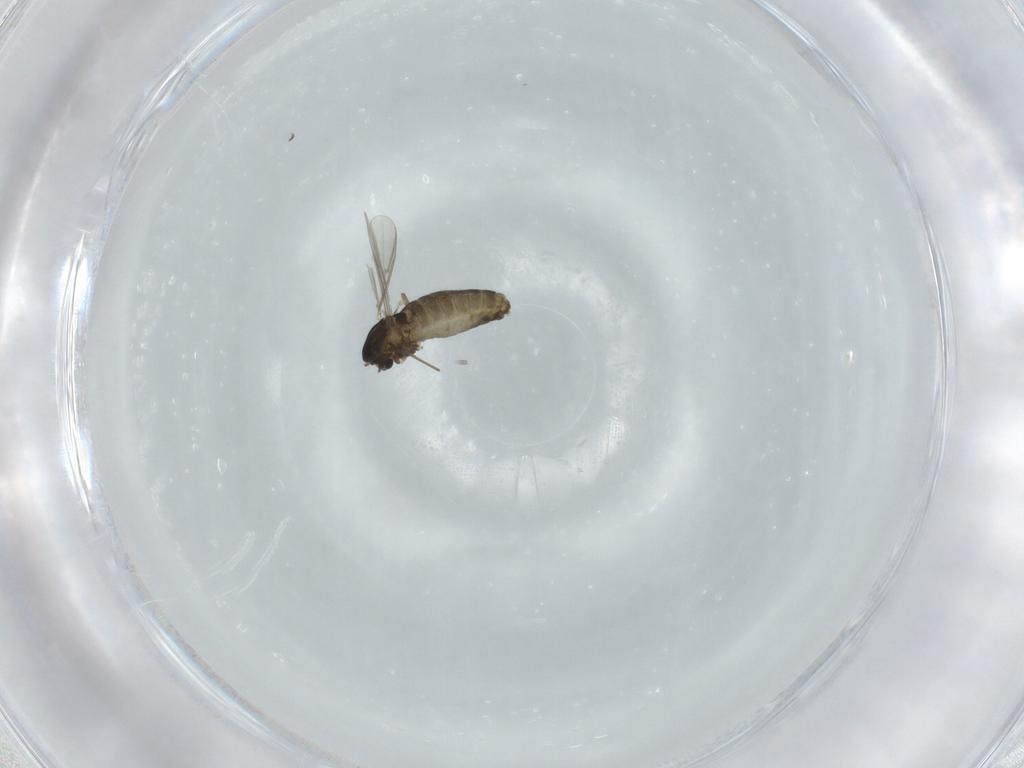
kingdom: Animalia
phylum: Arthropoda
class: Insecta
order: Diptera
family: Chironomidae
